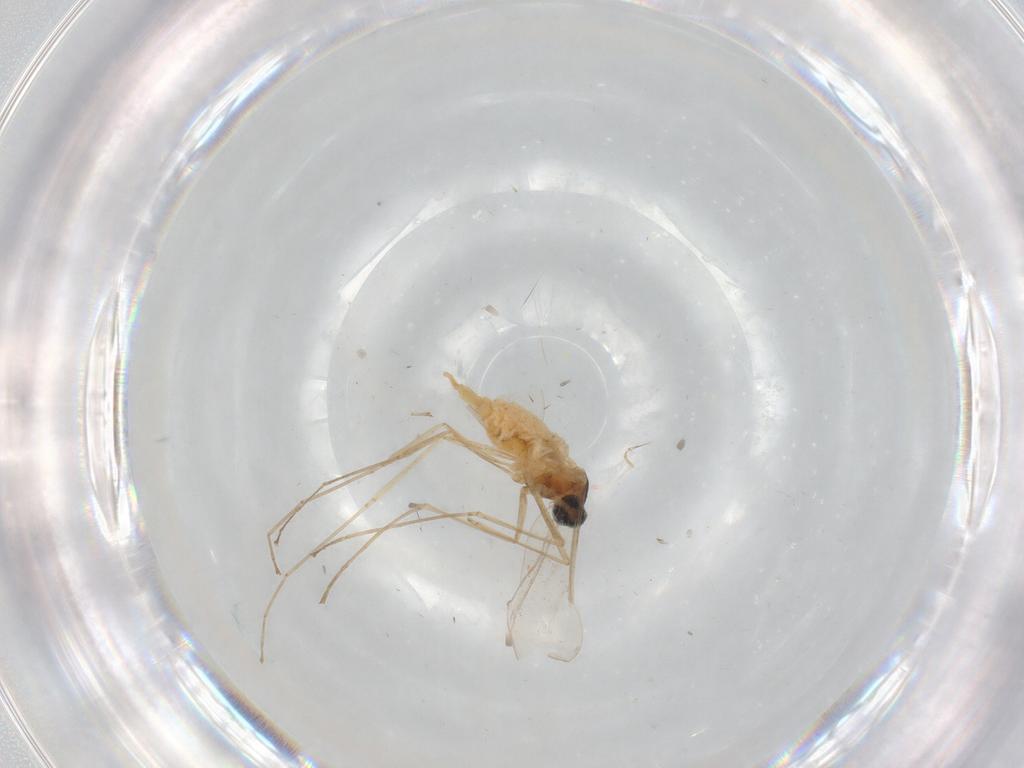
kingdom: Animalia
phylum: Arthropoda
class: Insecta
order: Diptera
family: Cecidomyiidae
